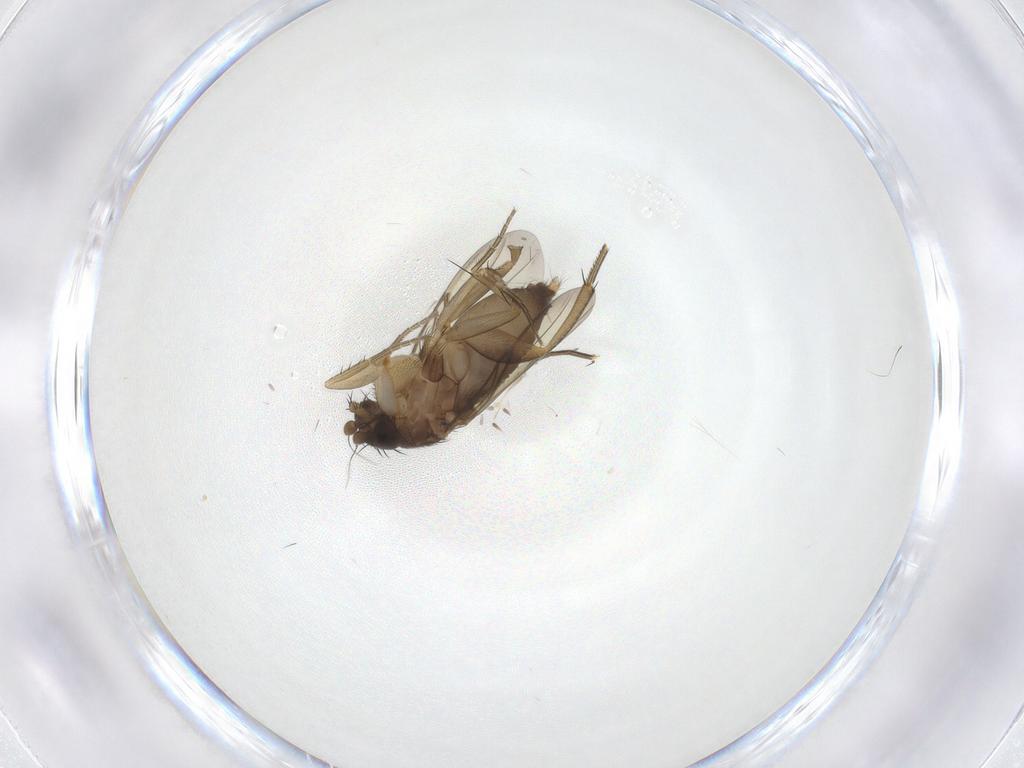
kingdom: Animalia
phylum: Arthropoda
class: Insecta
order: Diptera
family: Phoridae
